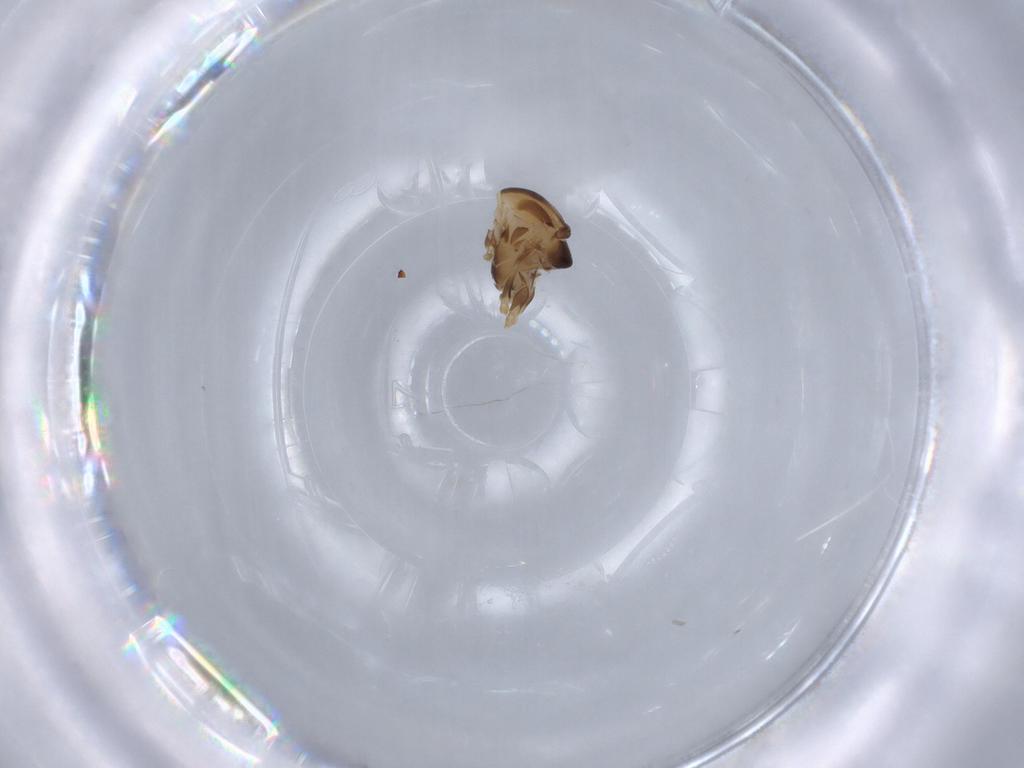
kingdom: Animalia
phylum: Arthropoda
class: Insecta
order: Diptera
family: Chironomidae
